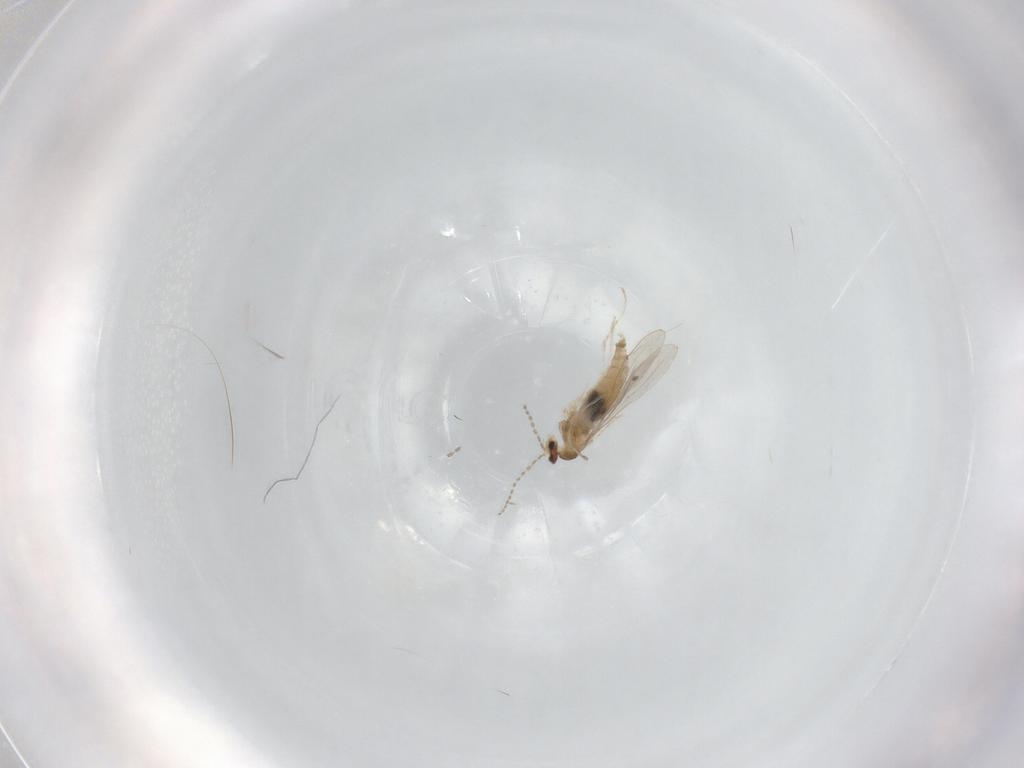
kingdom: Animalia
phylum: Arthropoda
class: Insecta
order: Diptera
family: Cecidomyiidae
